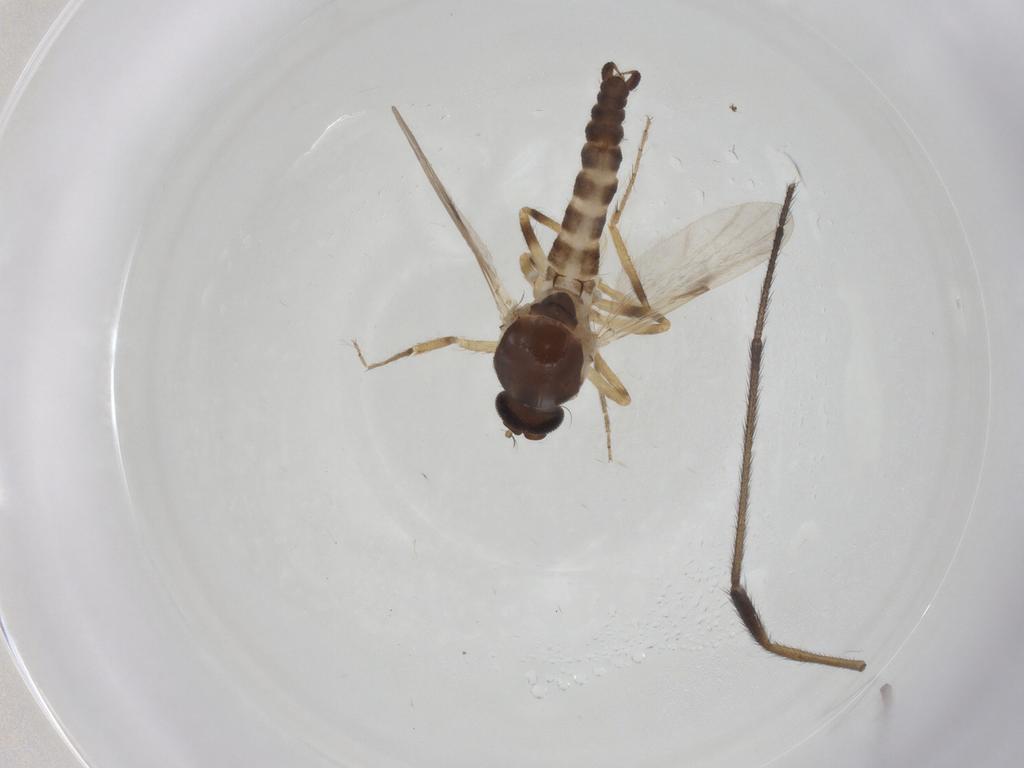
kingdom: Animalia
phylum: Arthropoda
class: Insecta
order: Diptera
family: Ceratopogonidae
